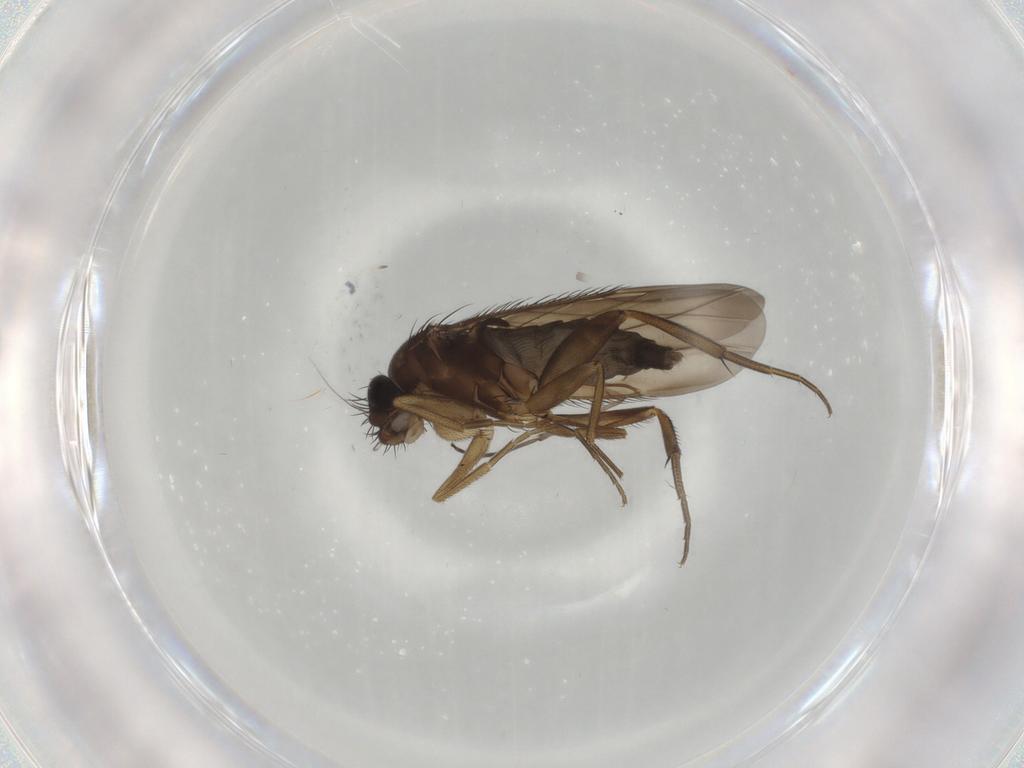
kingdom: Animalia
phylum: Arthropoda
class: Insecta
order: Diptera
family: Phoridae
